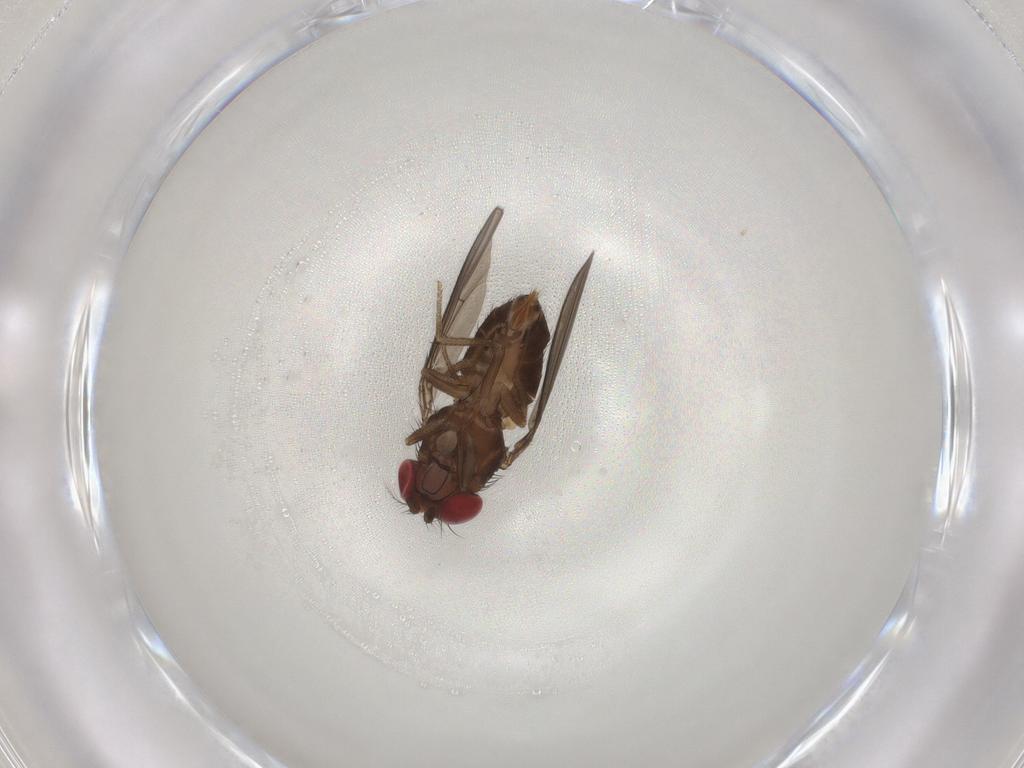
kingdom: Animalia
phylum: Arthropoda
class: Insecta
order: Diptera
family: Drosophilidae
